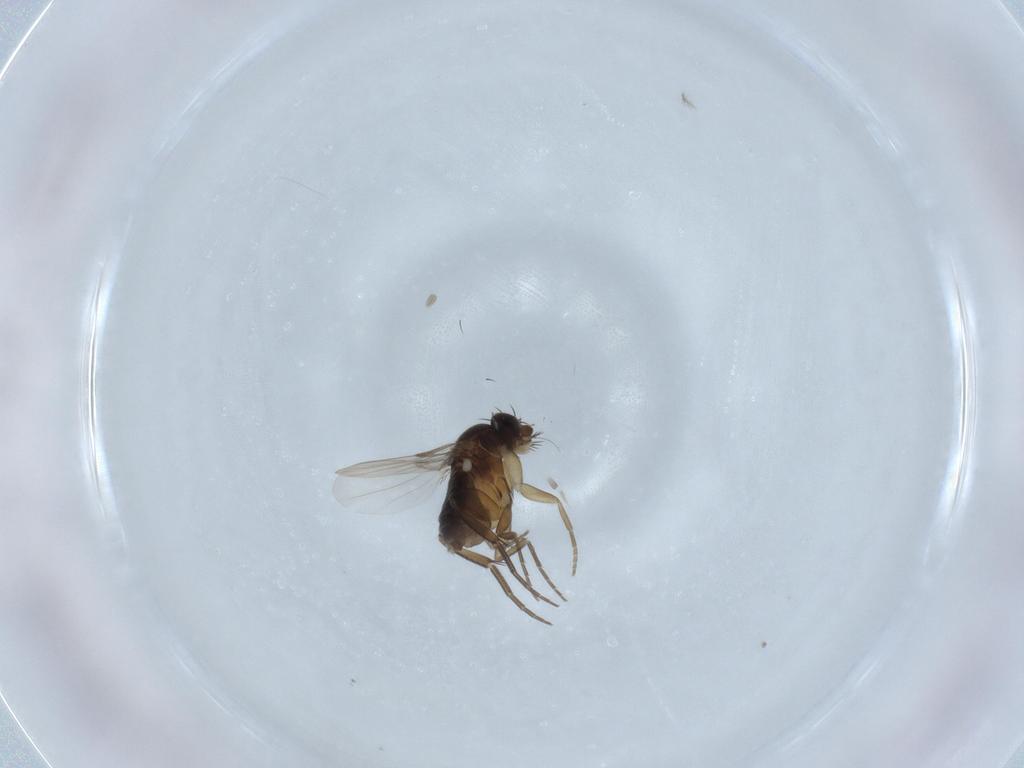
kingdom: Animalia
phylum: Arthropoda
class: Insecta
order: Diptera
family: Phoridae
